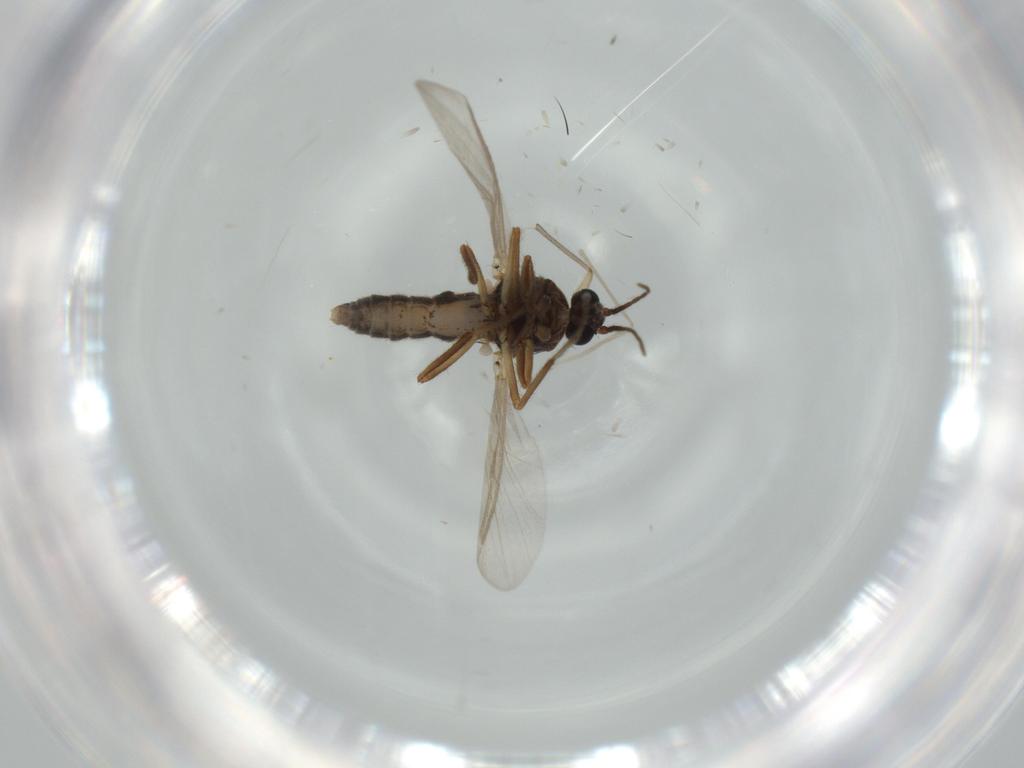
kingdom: Animalia
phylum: Arthropoda
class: Insecta
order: Diptera
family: Ceratopogonidae
